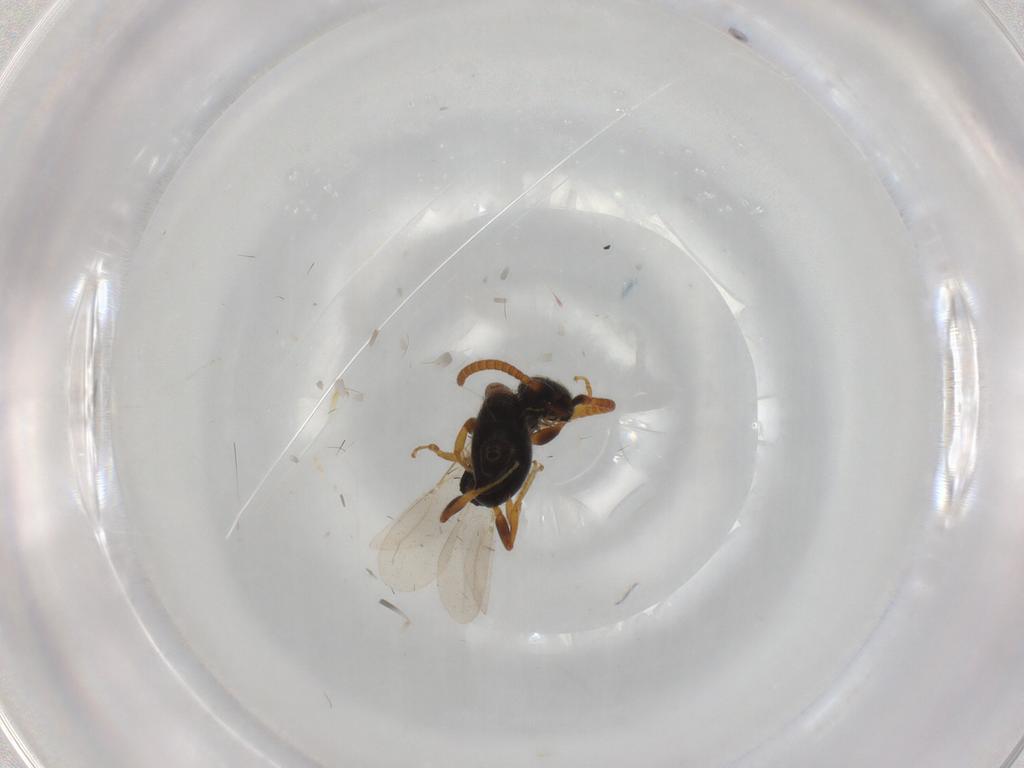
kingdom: Animalia
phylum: Arthropoda
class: Insecta
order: Hymenoptera
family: Bethylidae
